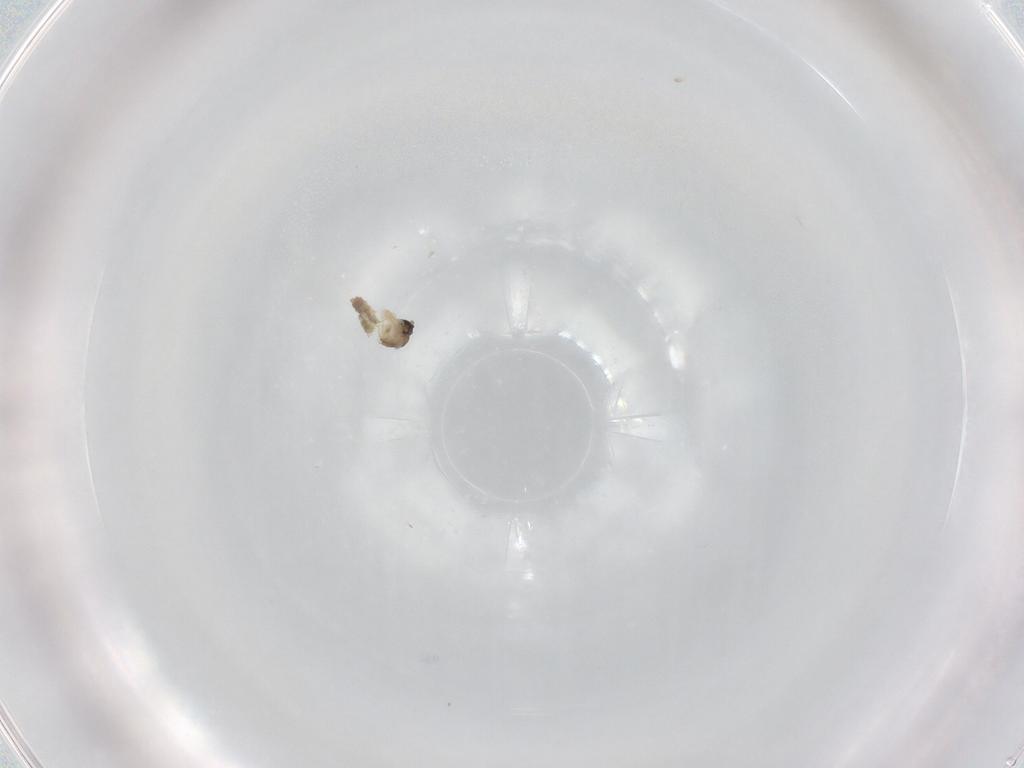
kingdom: Animalia
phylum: Arthropoda
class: Insecta
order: Diptera
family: Cecidomyiidae
